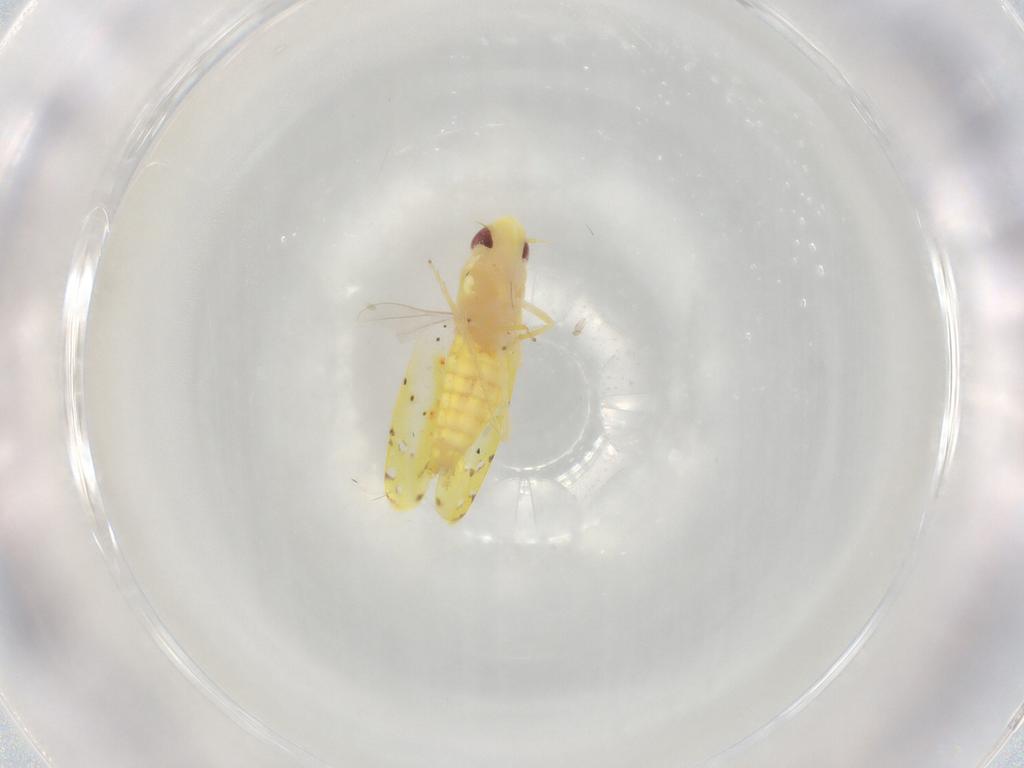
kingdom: Animalia
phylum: Arthropoda
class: Insecta
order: Hemiptera
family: Cicadellidae
